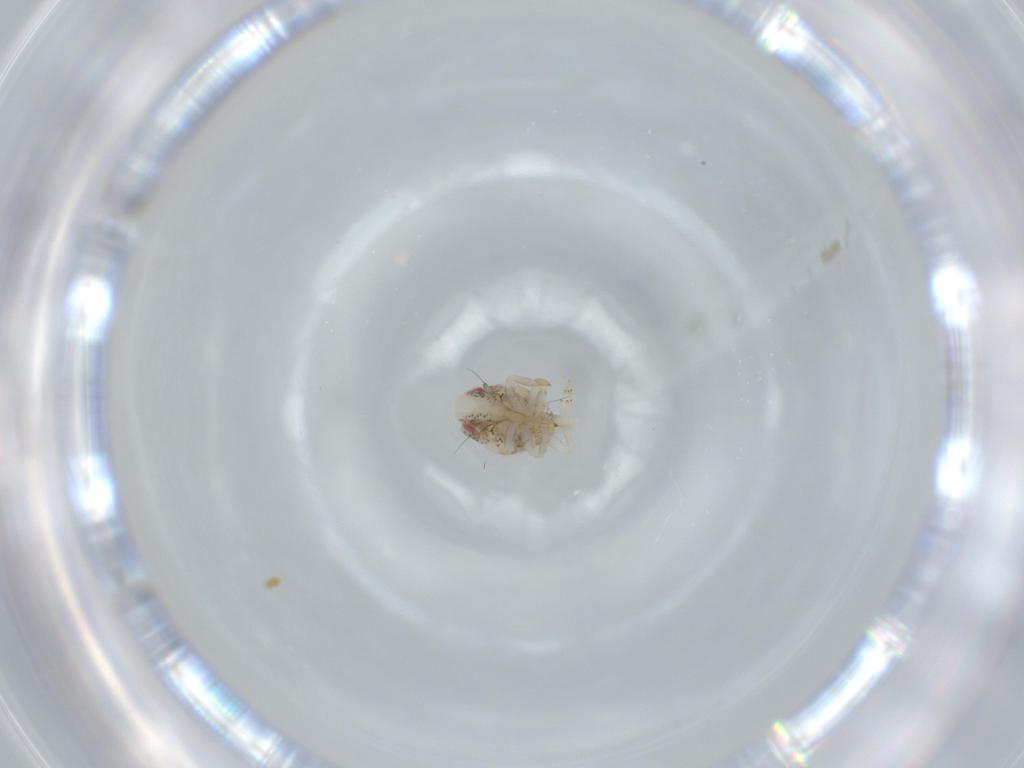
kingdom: Animalia
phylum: Arthropoda
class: Insecta
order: Hemiptera
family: Acanaloniidae
